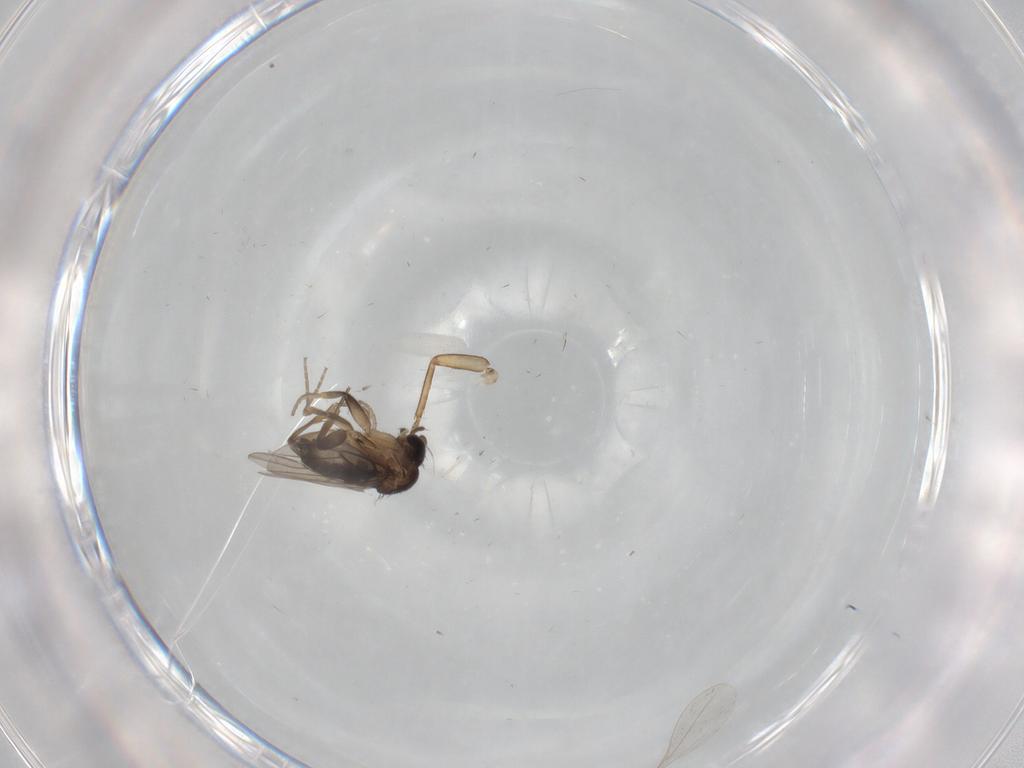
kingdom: Animalia
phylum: Arthropoda
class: Insecta
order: Diptera
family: Phoridae
